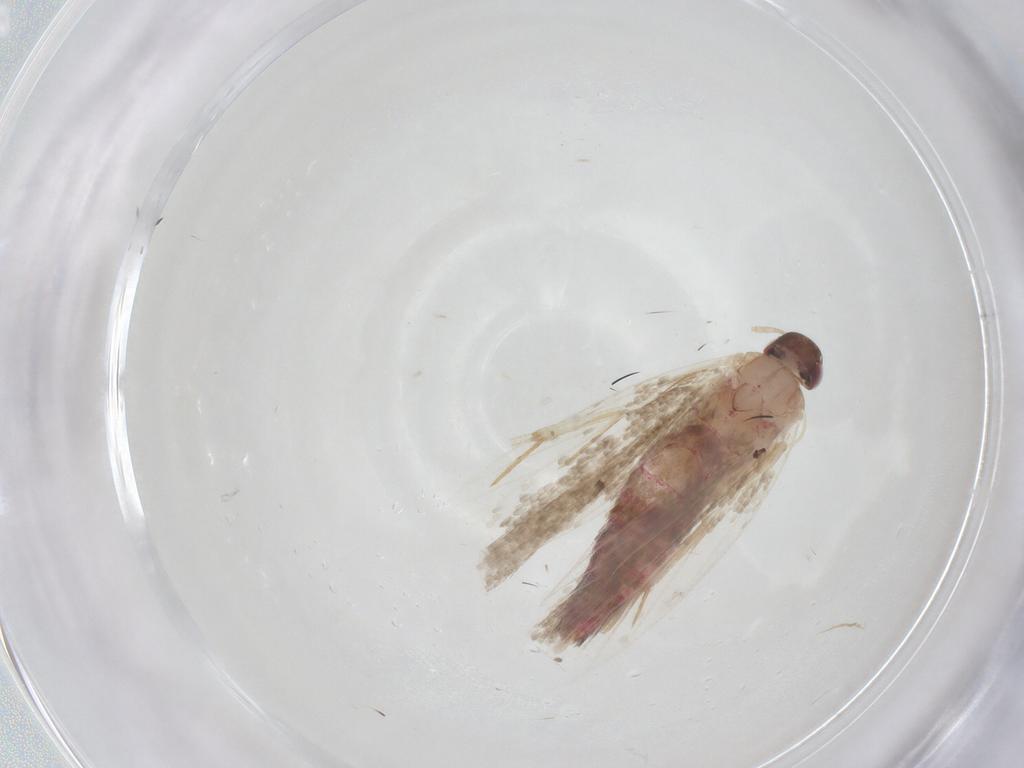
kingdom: Animalia
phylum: Arthropoda
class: Insecta
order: Lepidoptera
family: Gelechiidae
